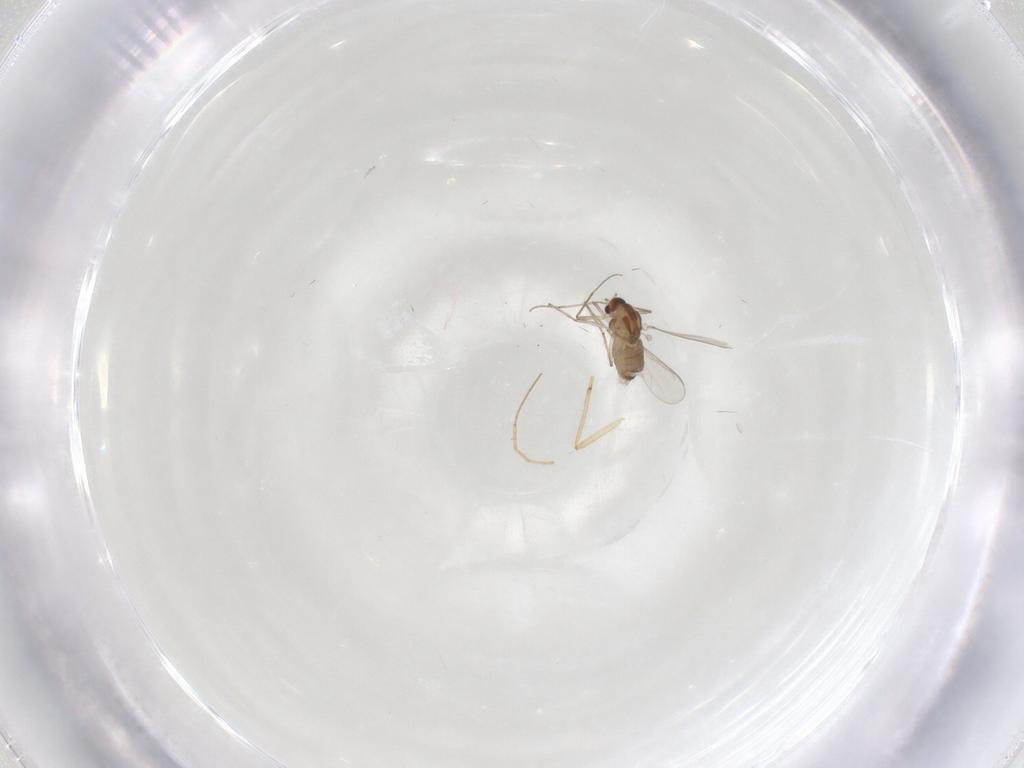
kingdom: Animalia
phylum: Arthropoda
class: Insecta
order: Diptera
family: Chironomidae
